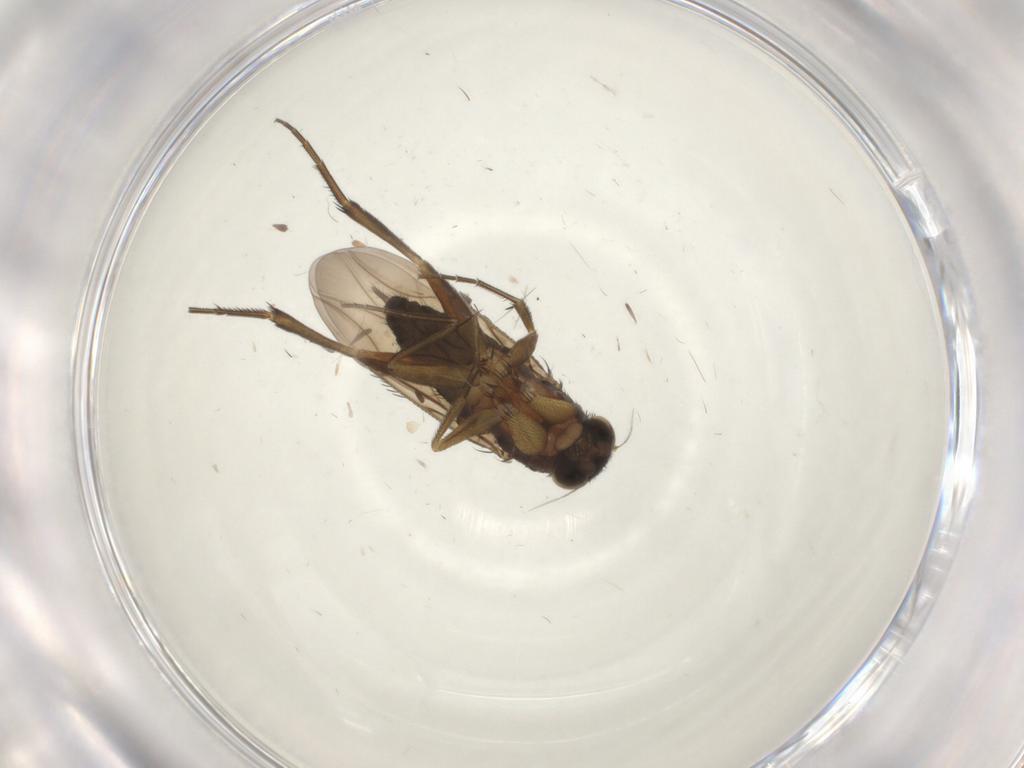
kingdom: Animalia
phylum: Arthropoda
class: Insecta
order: Diptera
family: Phoridae
